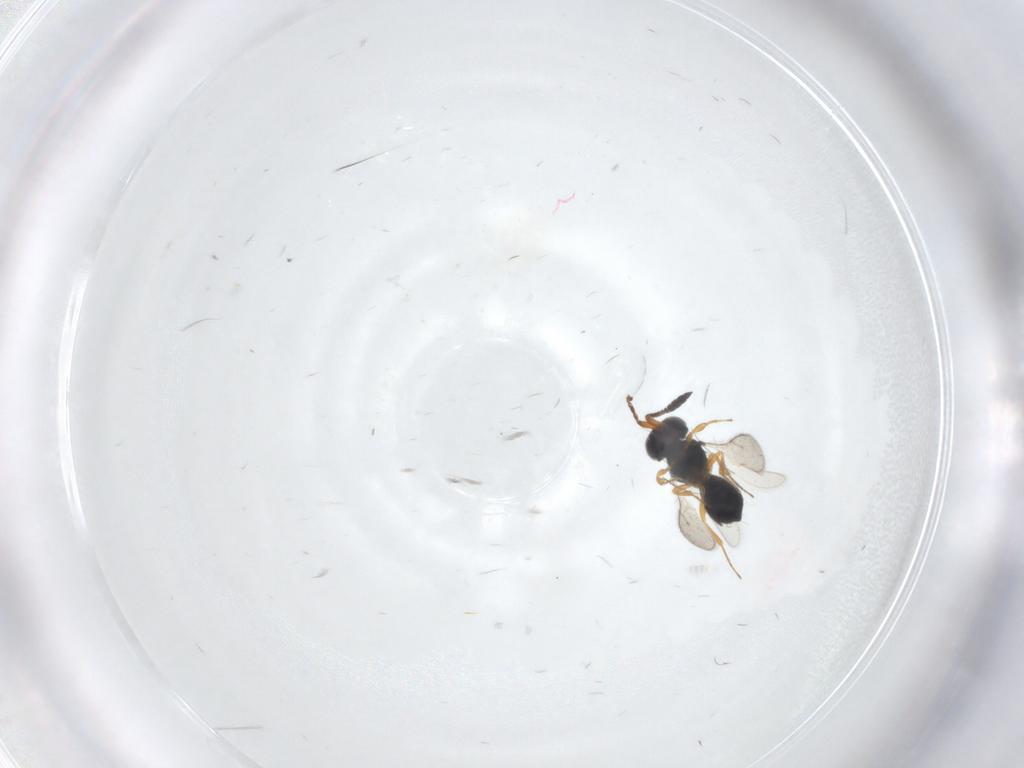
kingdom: Animalia
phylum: Arthropoda
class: Insecta
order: Hymenoptera
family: Scelionidae
